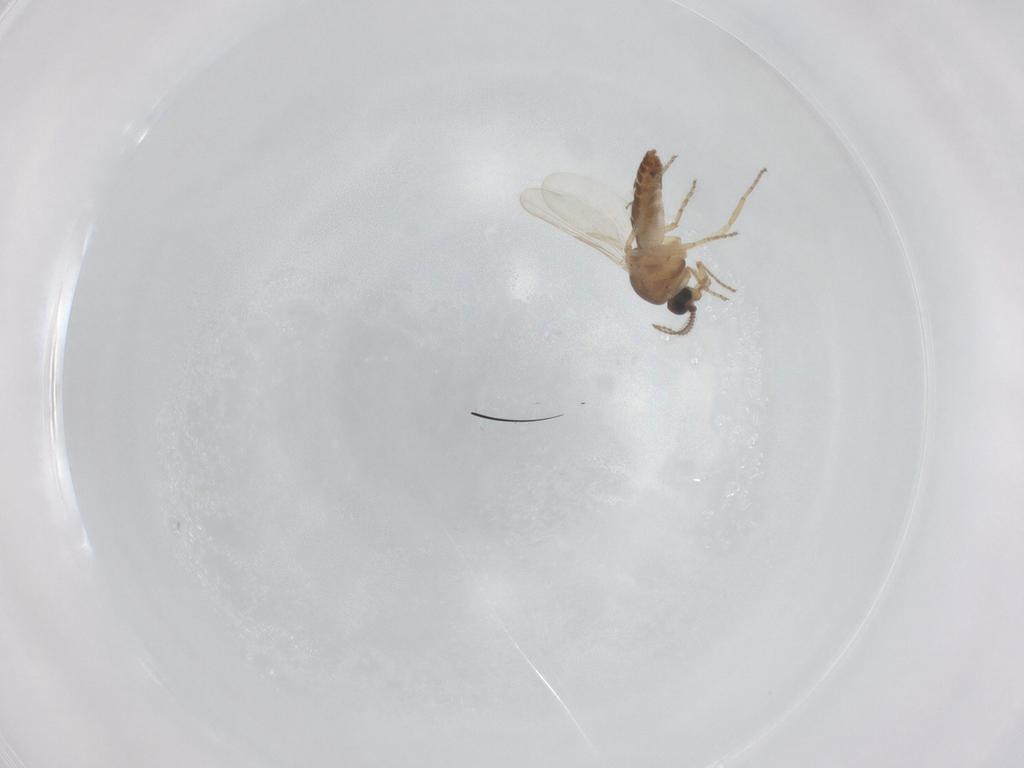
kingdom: Animalia
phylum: Arthropoda
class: Insecta
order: Diptera
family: Ceratopogonidae
